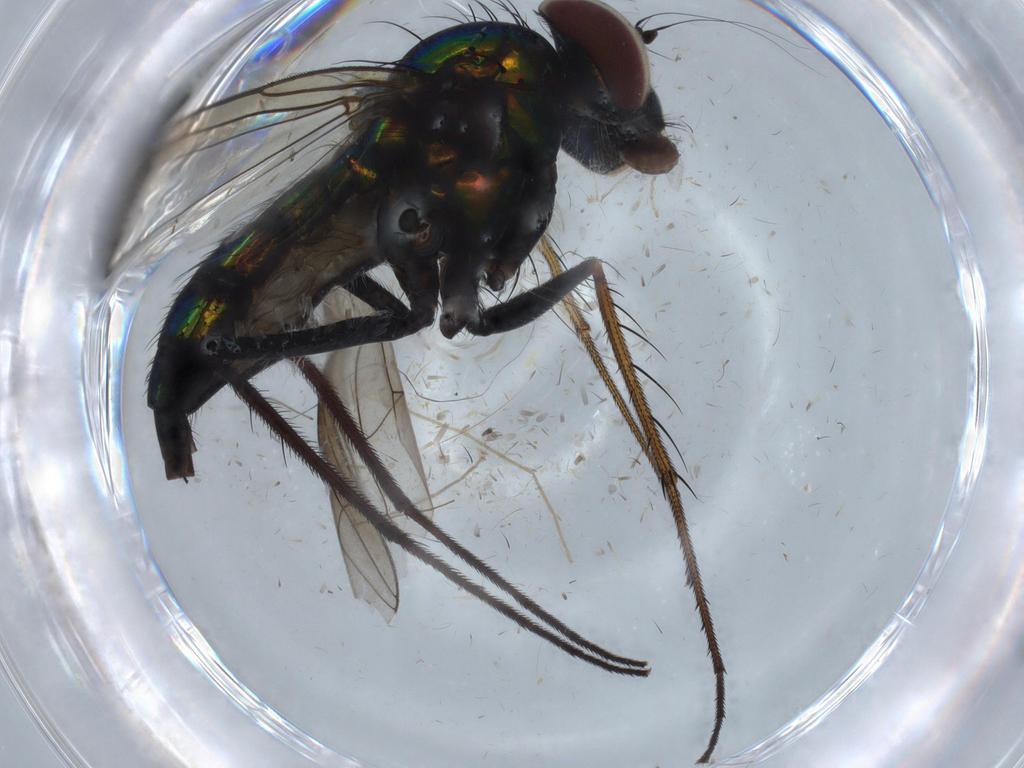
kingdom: Animalia
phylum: Arthropoda
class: Insecta
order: Diptera
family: Dolichopodidae
